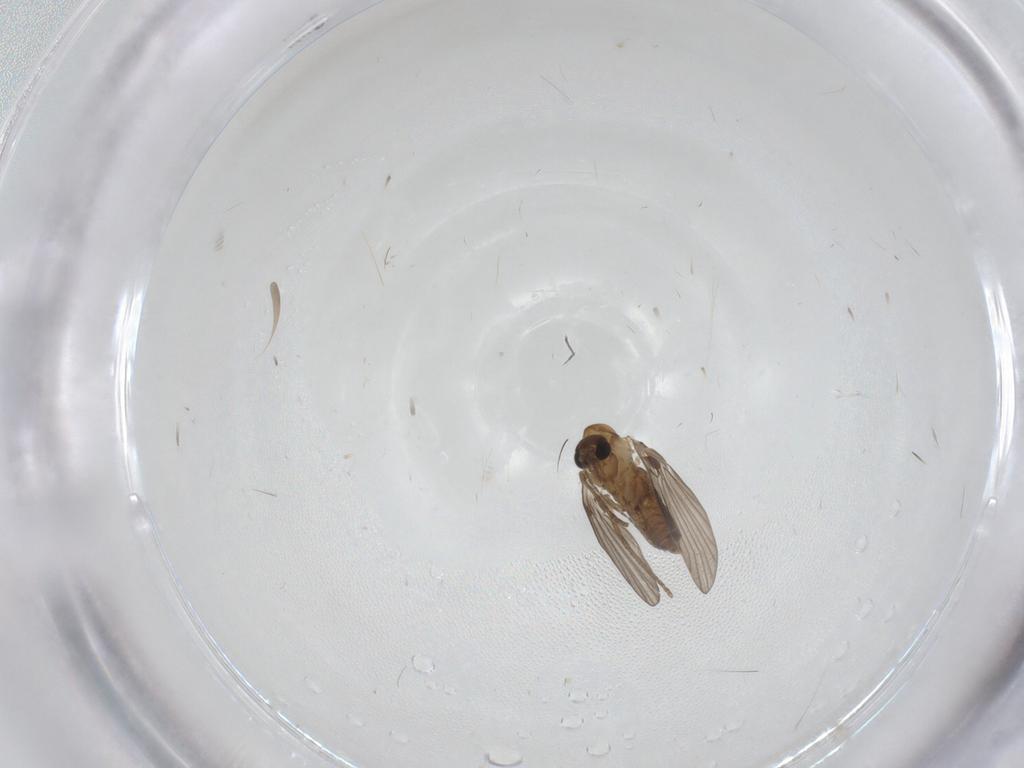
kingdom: Animalia
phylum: Arthropoda
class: Insecta
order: Diptera
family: Cecidomyiidae
